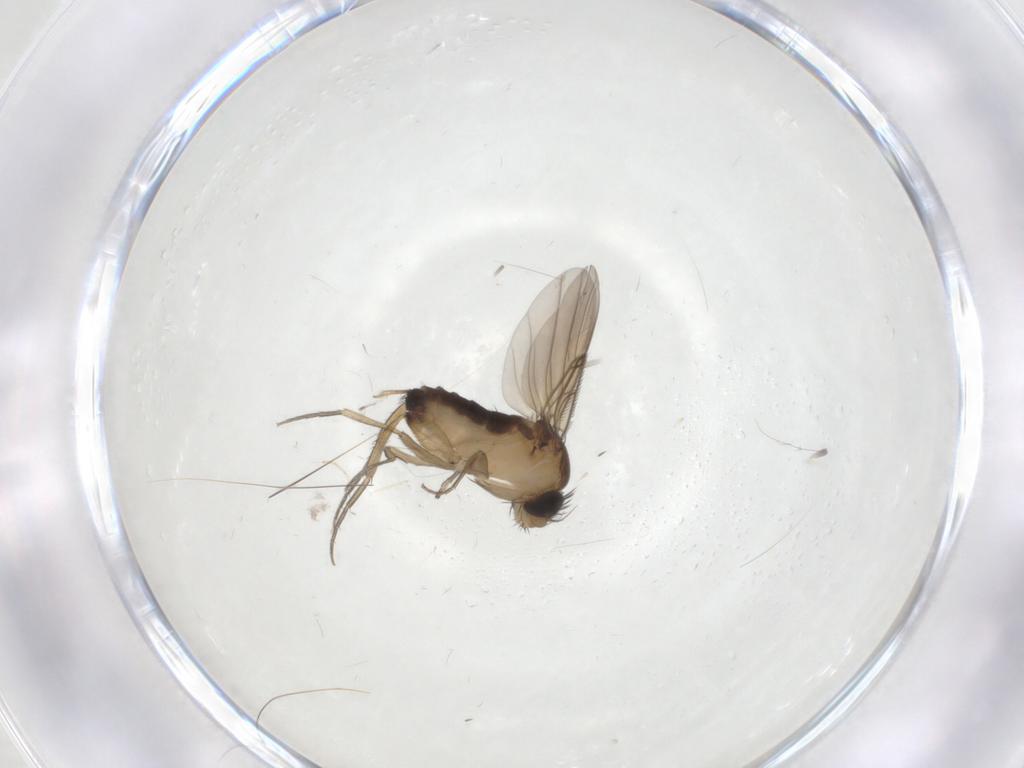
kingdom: Animalia
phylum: Arthropoda
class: Insecta
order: Diptera
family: Phoridae
